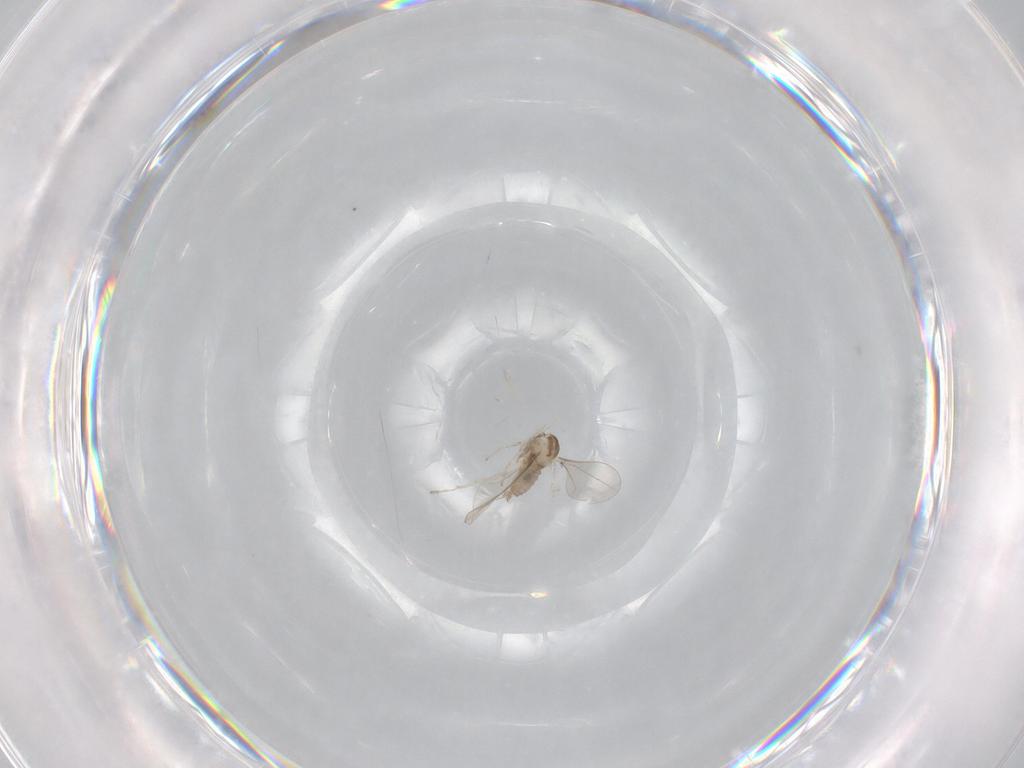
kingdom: Animalia
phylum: Arthropoda
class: Insecta
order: Diptera
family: Cecidomyiidae
